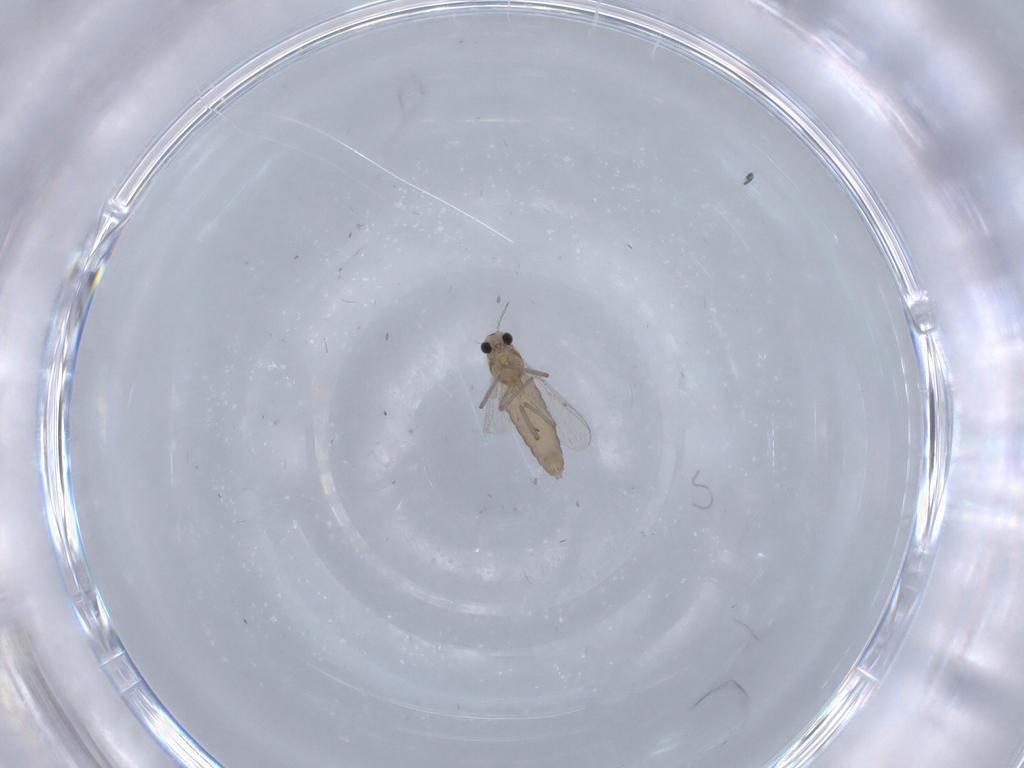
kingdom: Animalia
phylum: Arthropoda
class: Insecta
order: Diptera
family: Chironomidae
